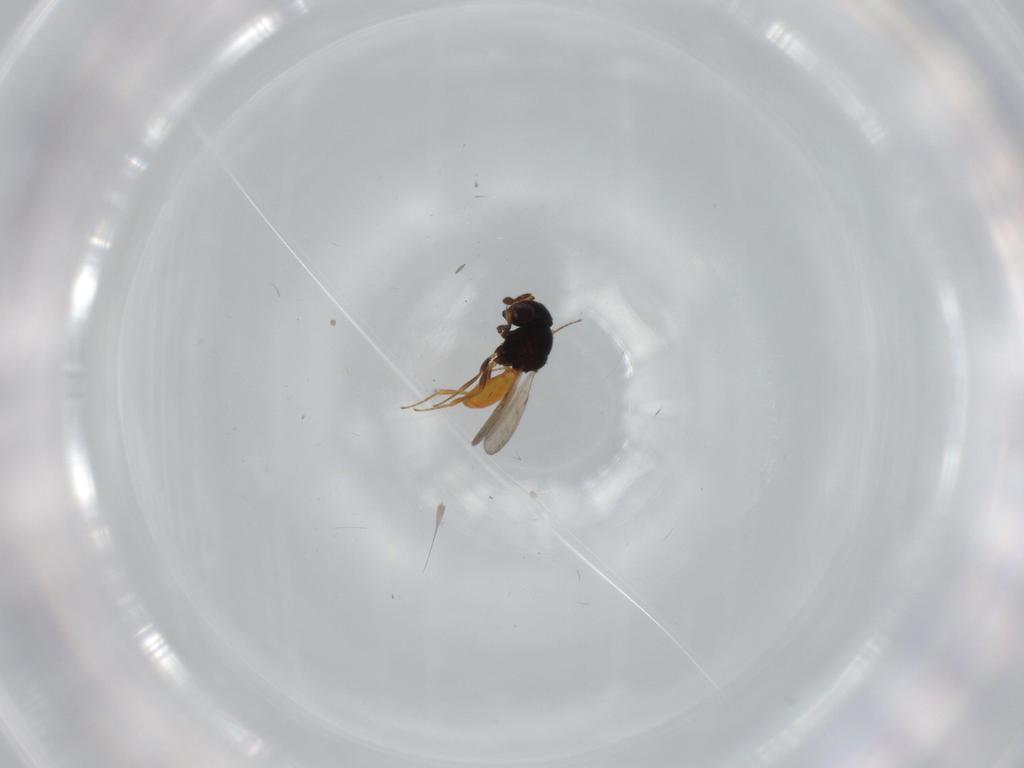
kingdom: Animalia
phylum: Arthropoda
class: Insecta
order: Hymenoptera
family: Scelionidae
